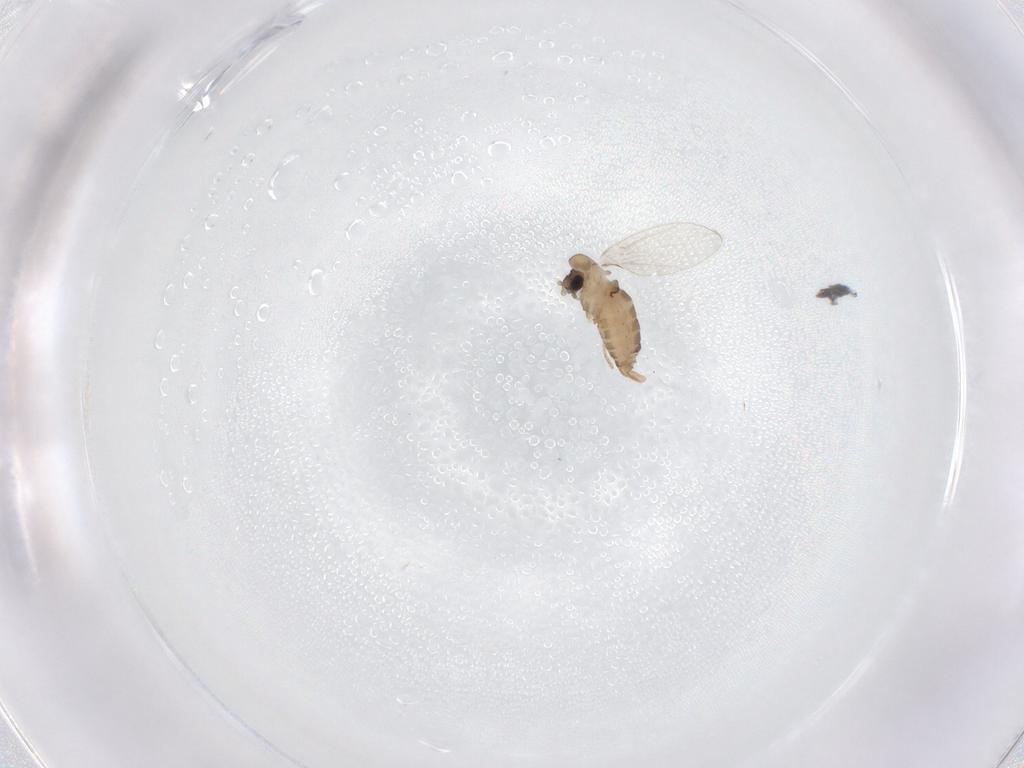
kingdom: Animalia
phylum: Arthropoda
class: Insecta
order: Diptera
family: Psychodidae
